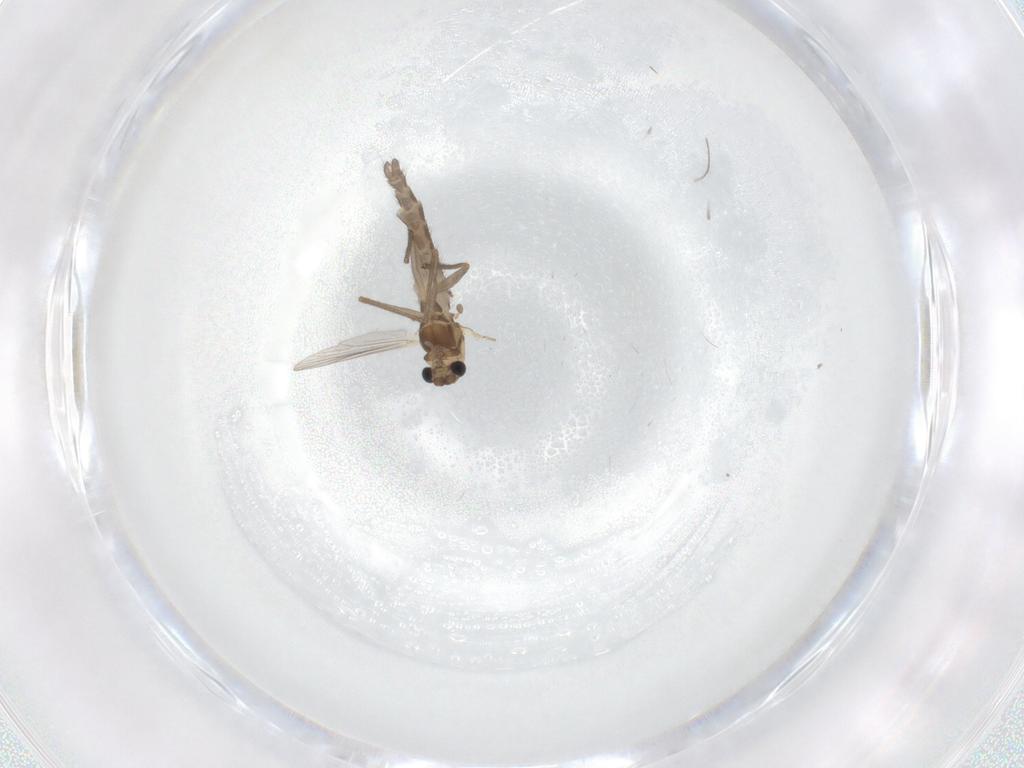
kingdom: Animalia
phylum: Arthropoda
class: Insecta
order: Diptera
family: Chironomidae
